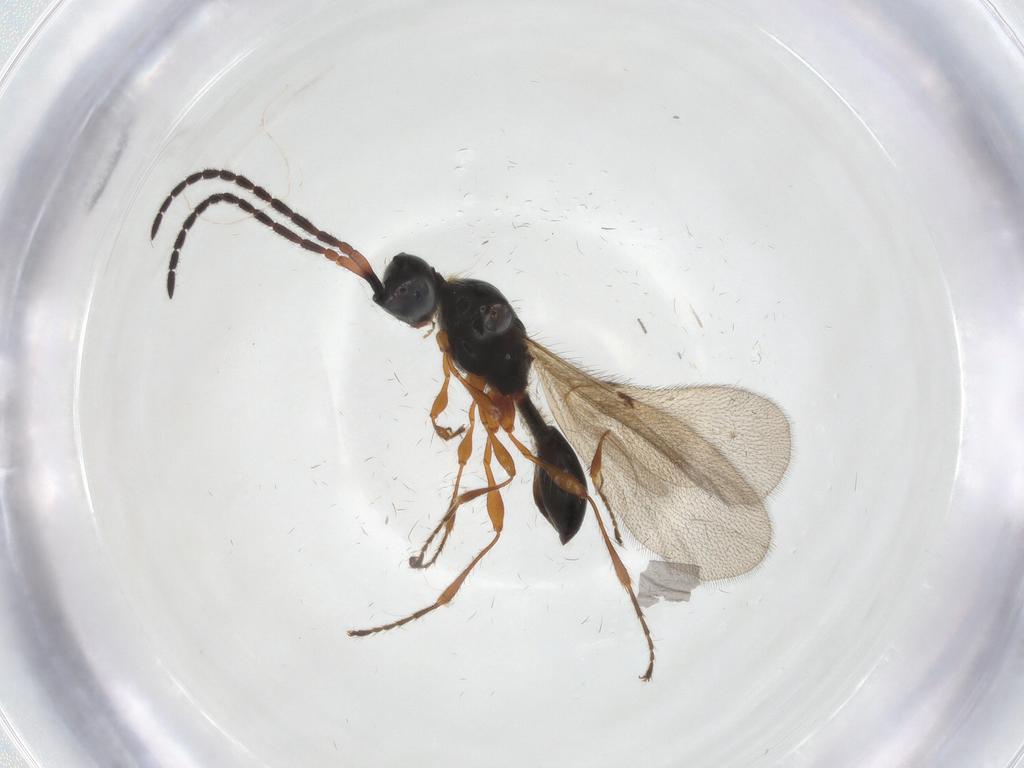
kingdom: Animalia
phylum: Arthropoda
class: Insecta
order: Hymenoptera
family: Diapriidae
